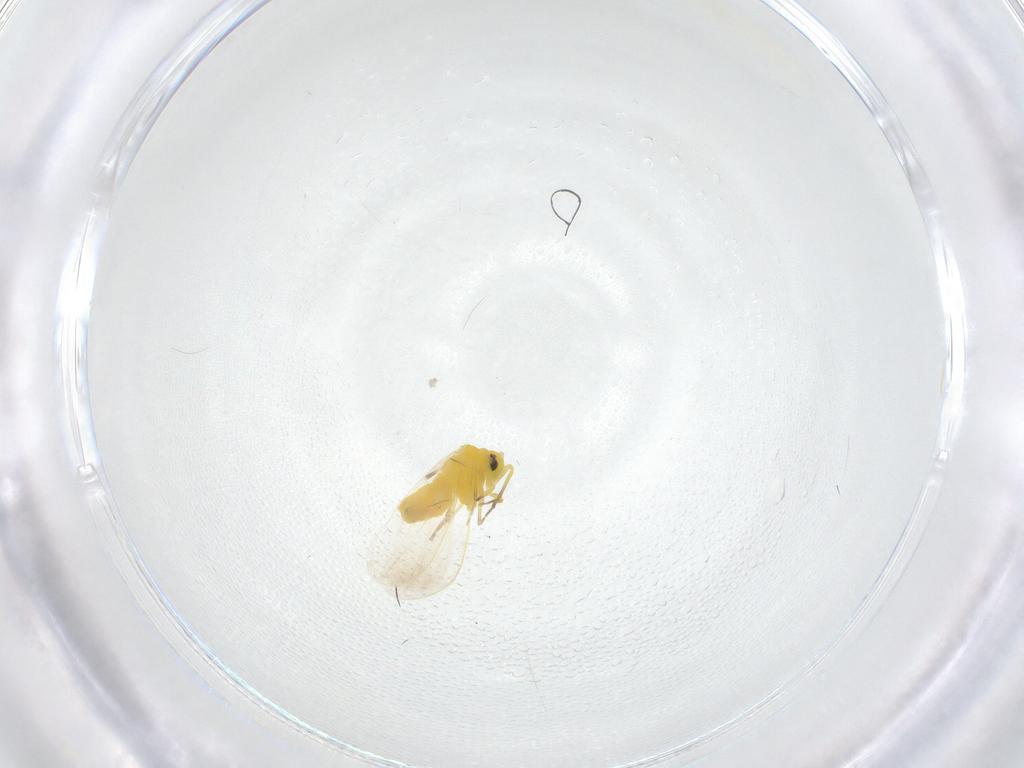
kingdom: Animalia
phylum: Arthropoda
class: Insecta
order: Hemiptera
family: Aleyrodidae
